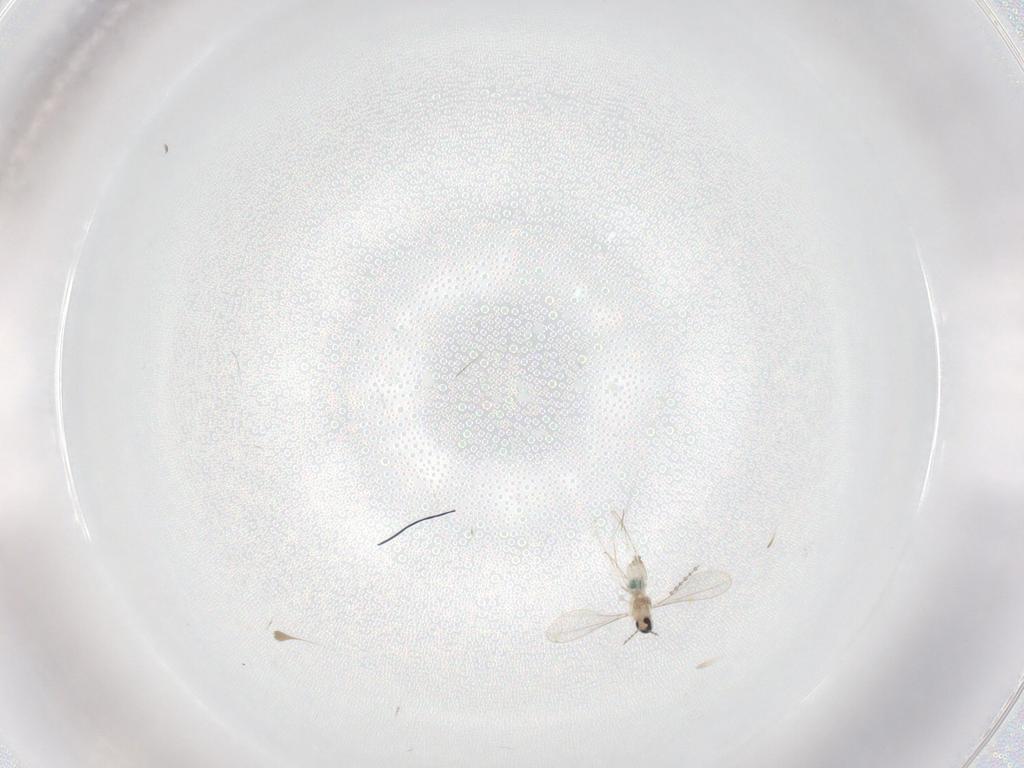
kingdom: Animalia
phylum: Arthropoda
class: Insecta
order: Diptera
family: Cecidomyiidae
